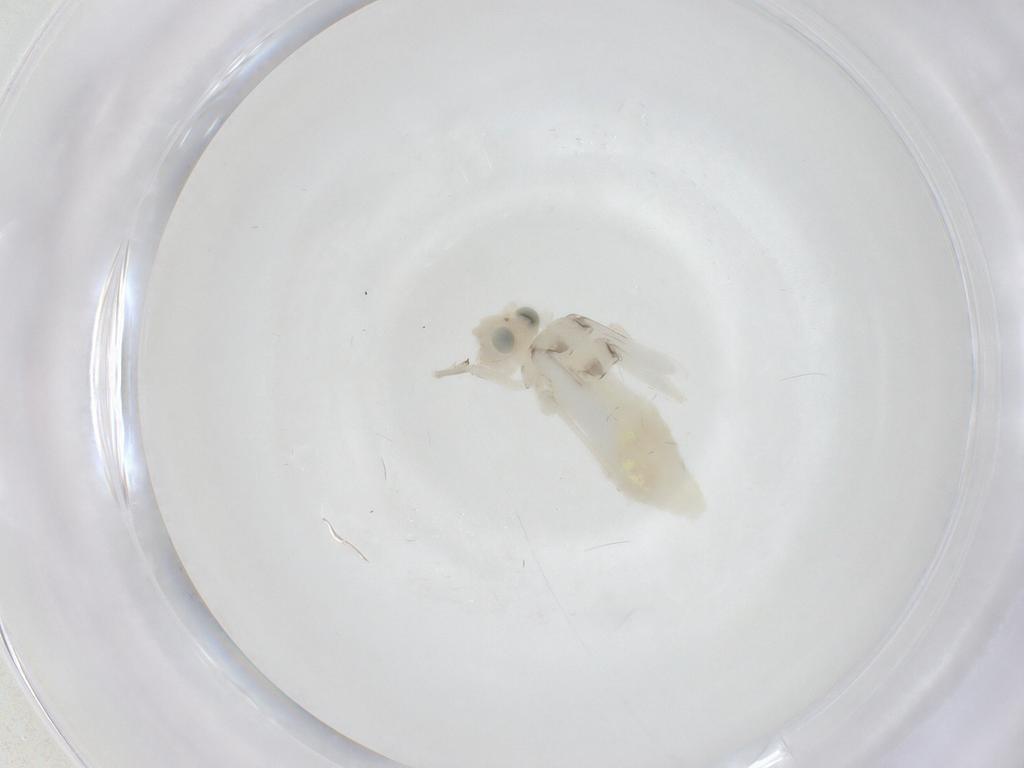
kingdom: Animalia
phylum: Arthropoda
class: Insecta
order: Psocodea
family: Caeciliusidae
